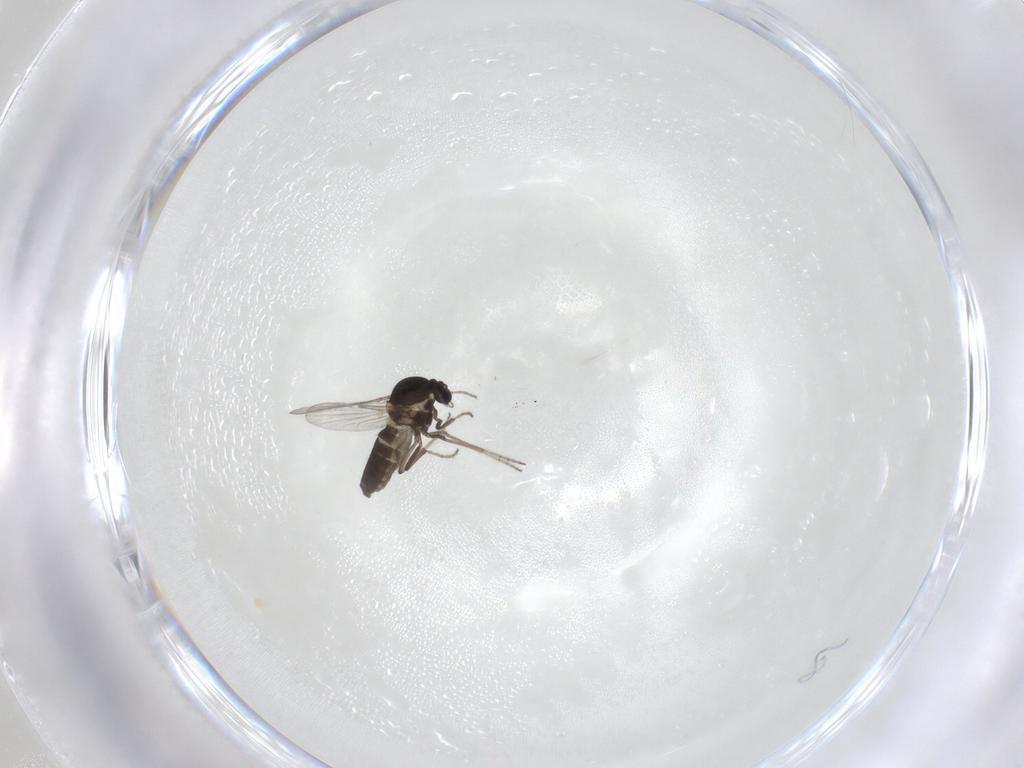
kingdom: Animalia
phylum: Arthropoda
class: Insecta
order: Diptera
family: Ceratopogonidae
